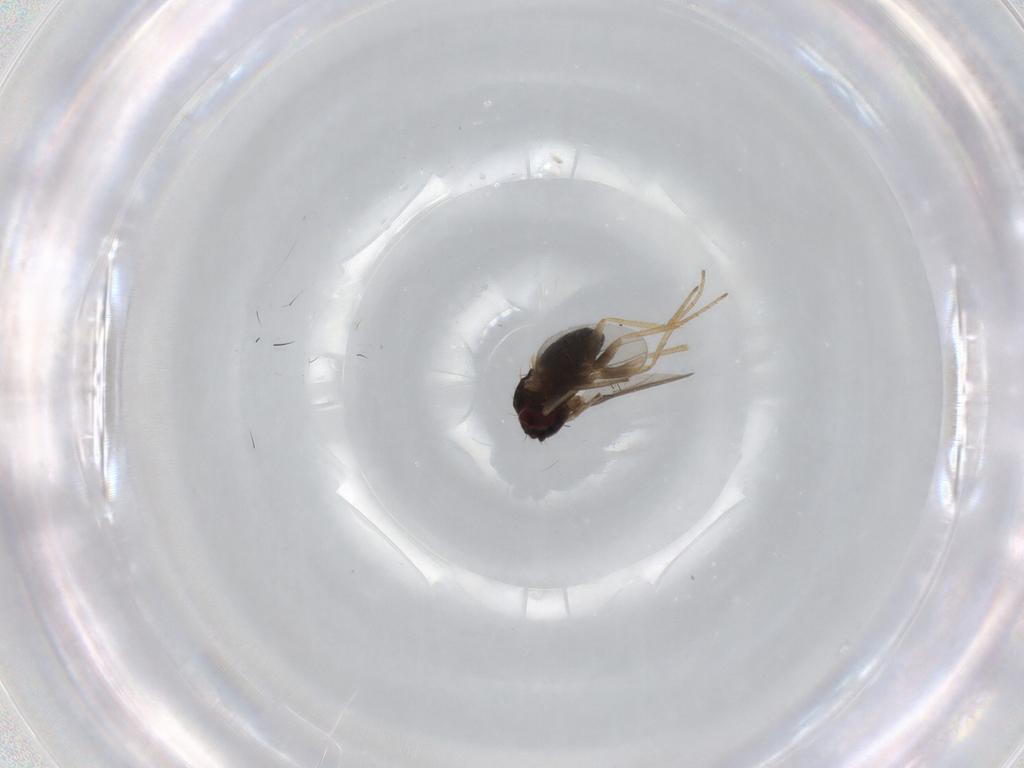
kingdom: Animalia
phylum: Arthropoda
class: Insecta
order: Diptera
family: Dolichopodidae
